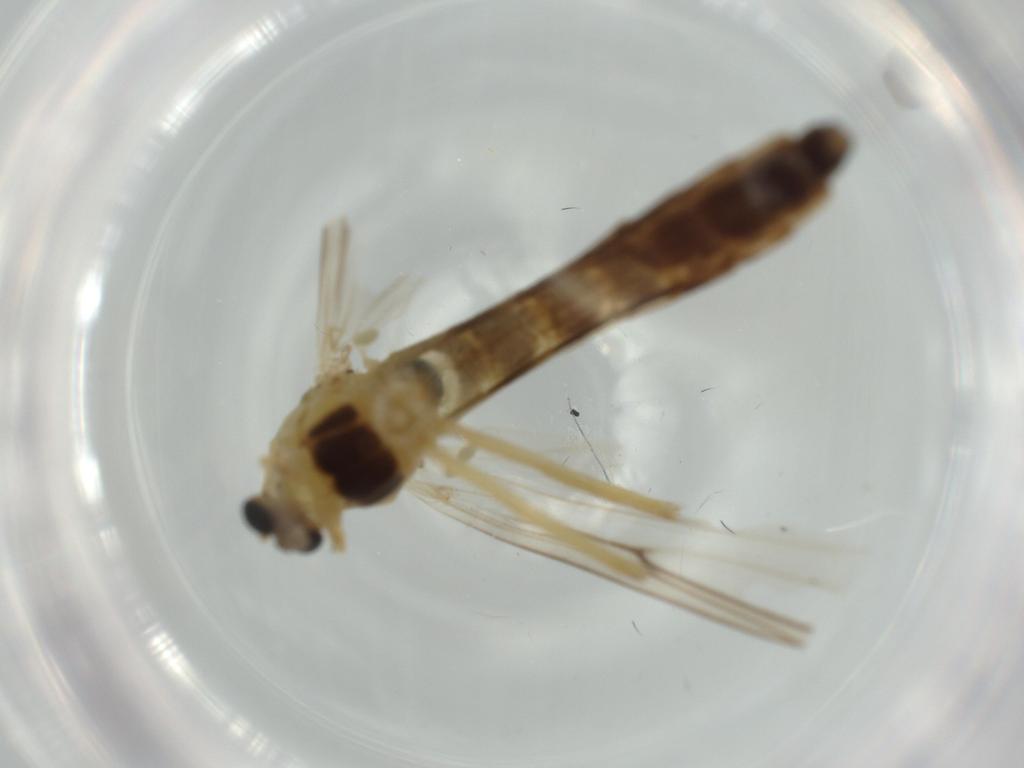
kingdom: Animalia
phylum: Arthropoda
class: Insecta
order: Diptera
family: Phoridae
